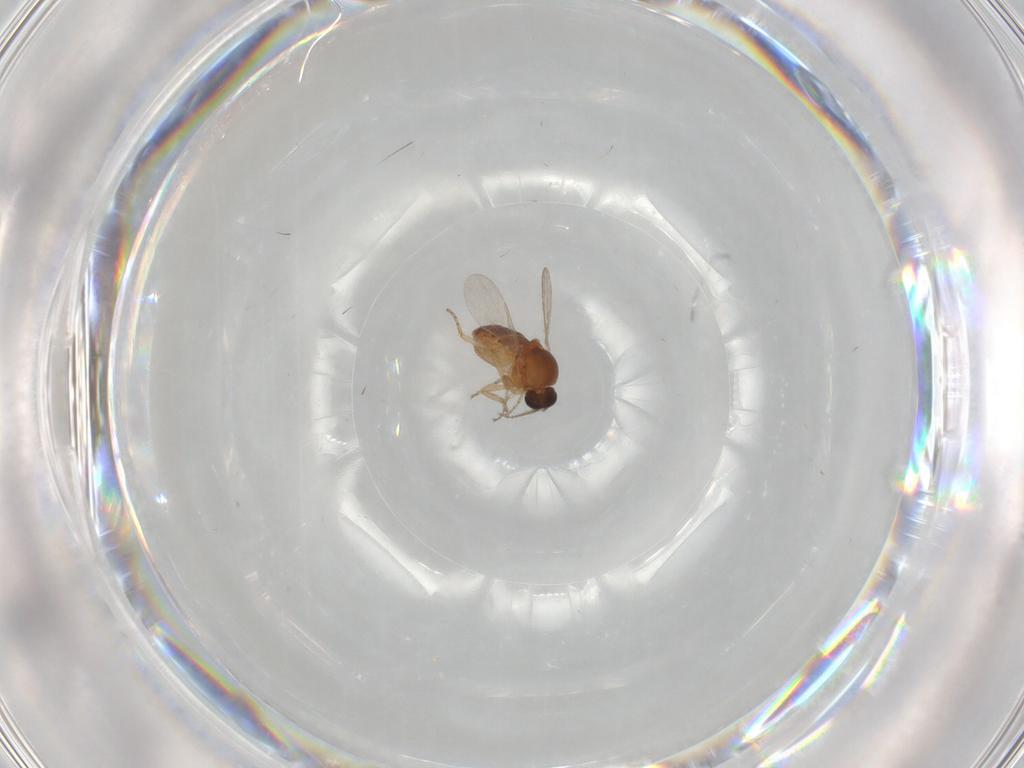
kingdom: Animalia
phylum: Arthropoda
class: Insecta
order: Diptera
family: Ceratopogonidae
